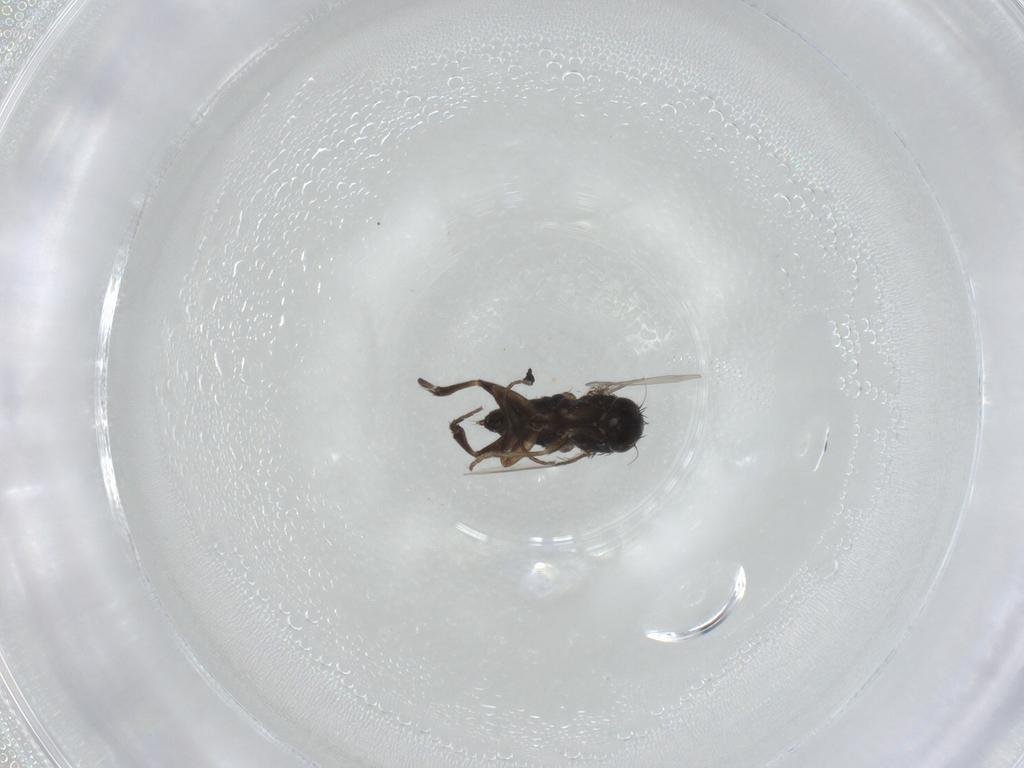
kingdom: Animalia
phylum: Arthropoda
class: Insecta
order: Diptera
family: Phoridae
